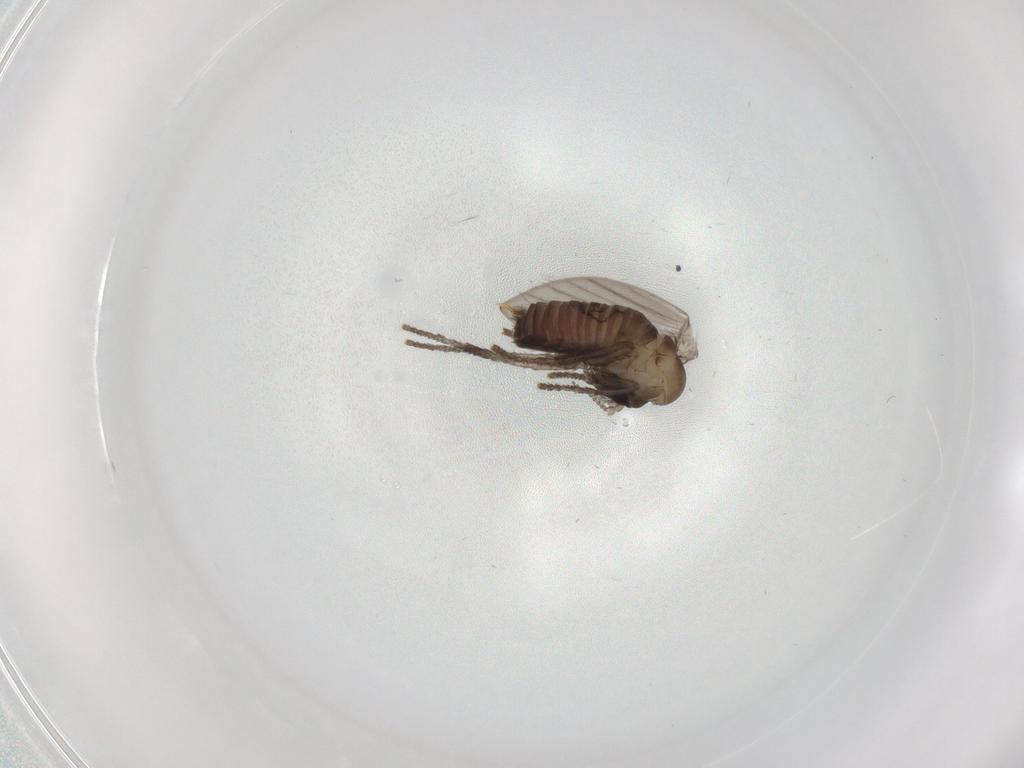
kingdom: Animalia
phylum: Arthropoda
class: Insecta
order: Diptera
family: Psychodidae
